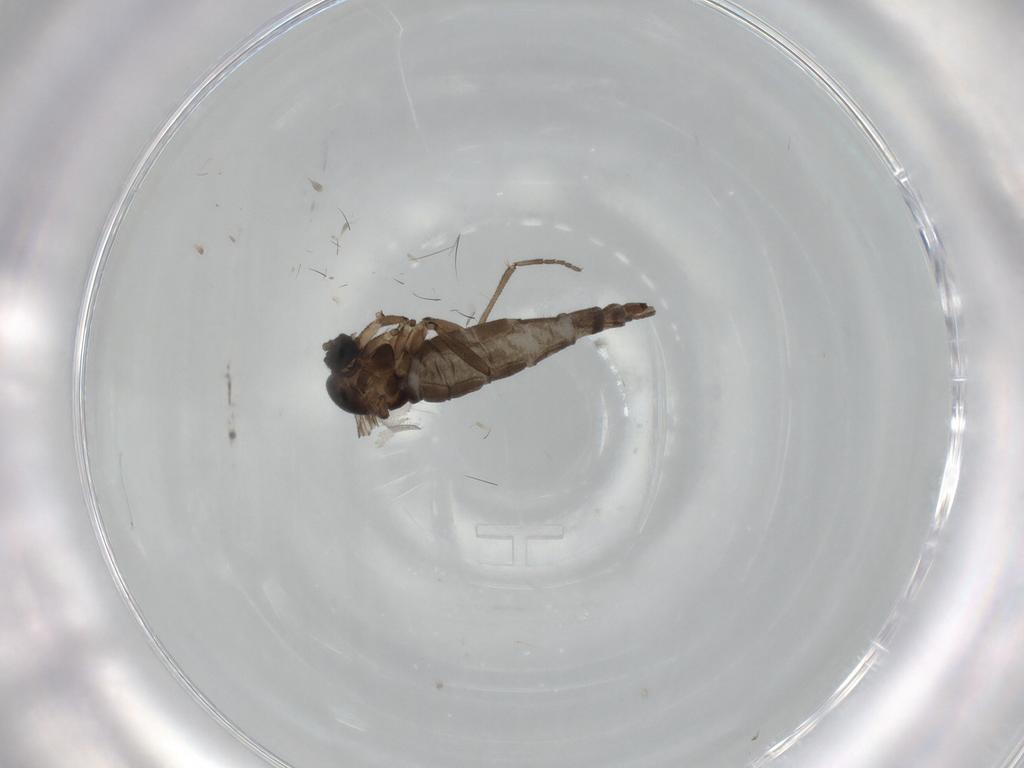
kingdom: Animalia
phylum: Arthropoda
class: Insecta
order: Diptera
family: Sciaridae
